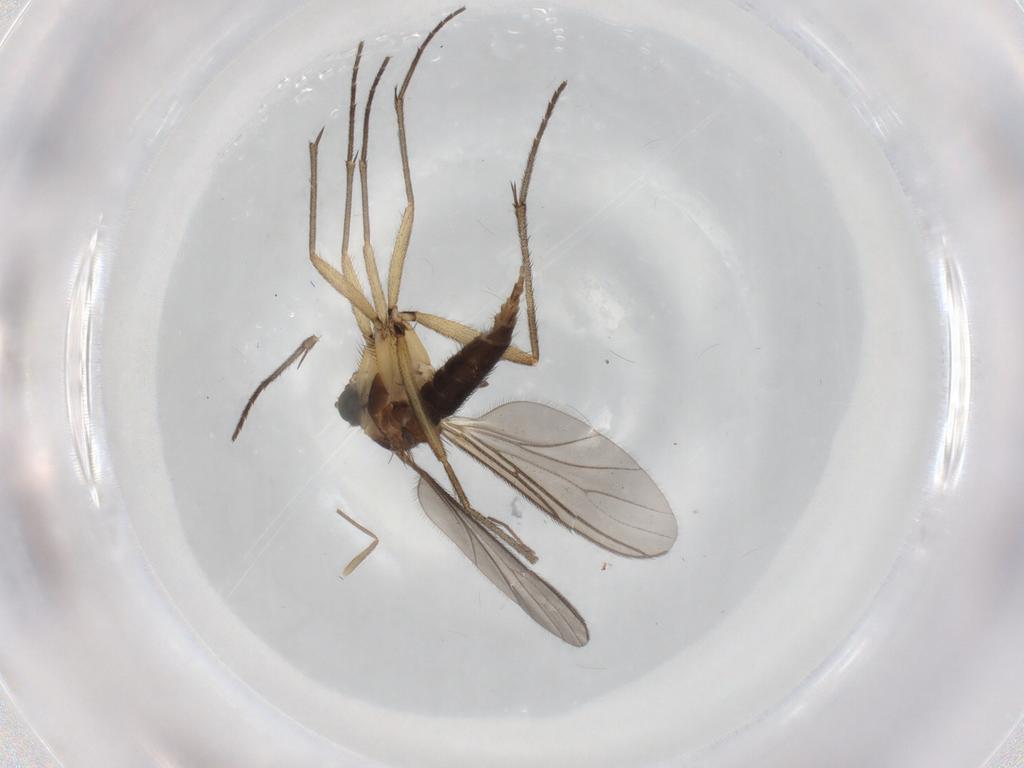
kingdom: Animalia
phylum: Arthropoda
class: Insecta
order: Diptera
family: Sciaridae
